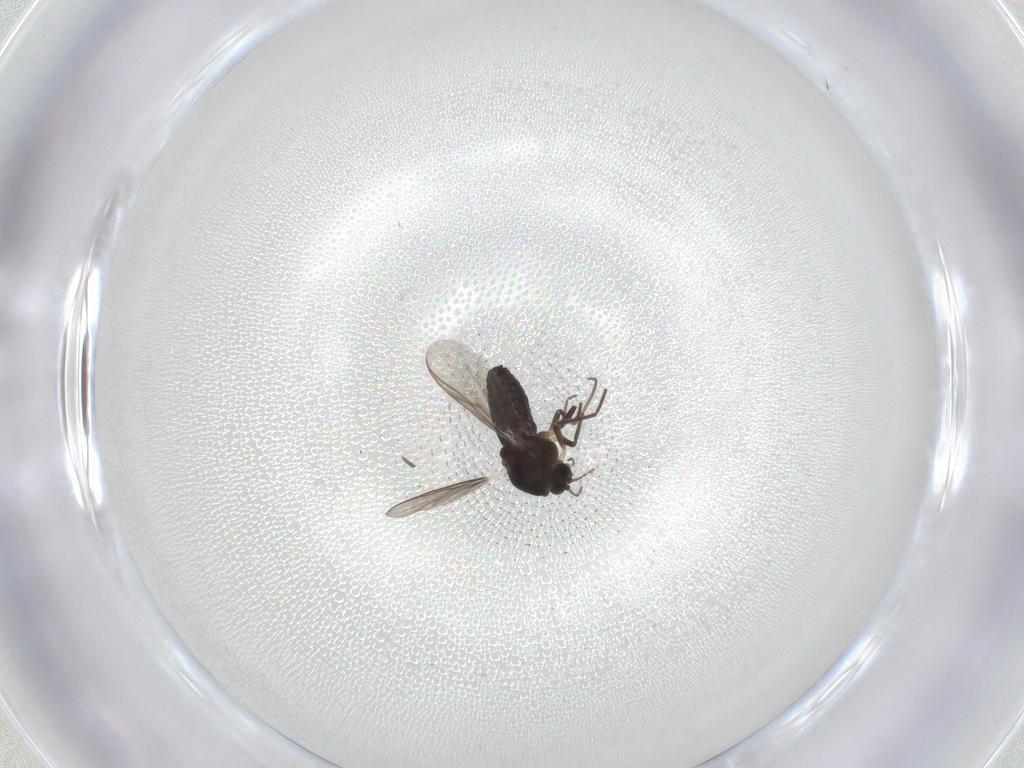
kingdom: Animalia
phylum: Arthropoda
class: Insecta
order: Diptera
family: Chironomidae
